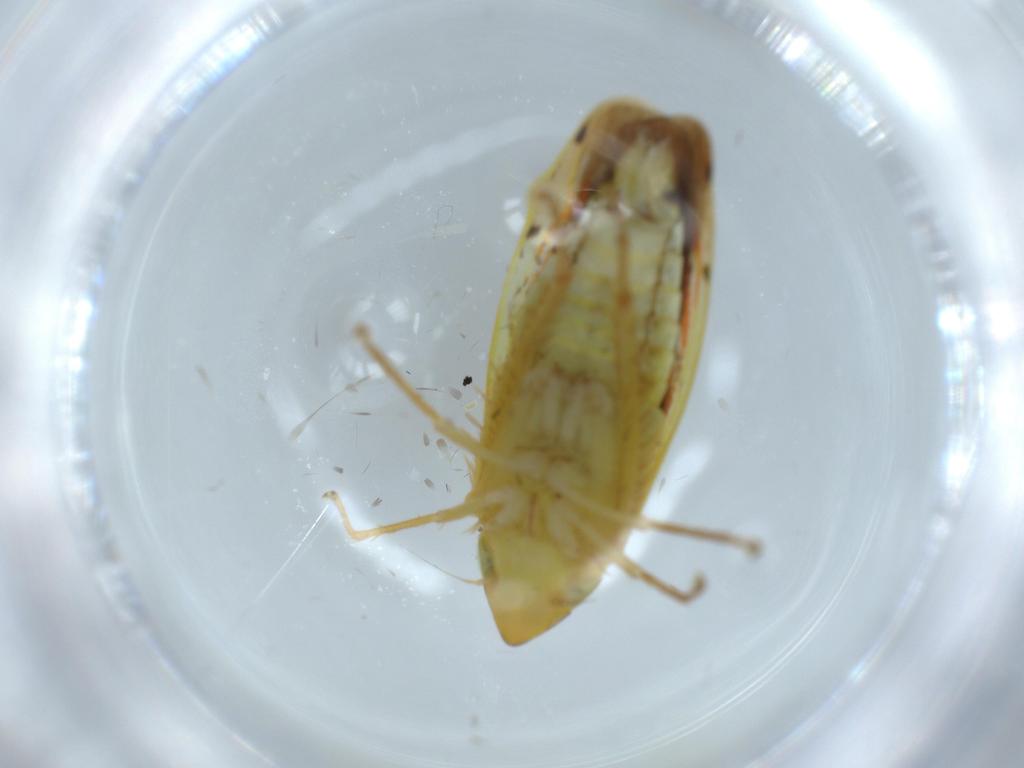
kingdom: Animalia
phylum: Arthropoda
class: Insecta
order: Hemiptera
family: Cicadellidae
